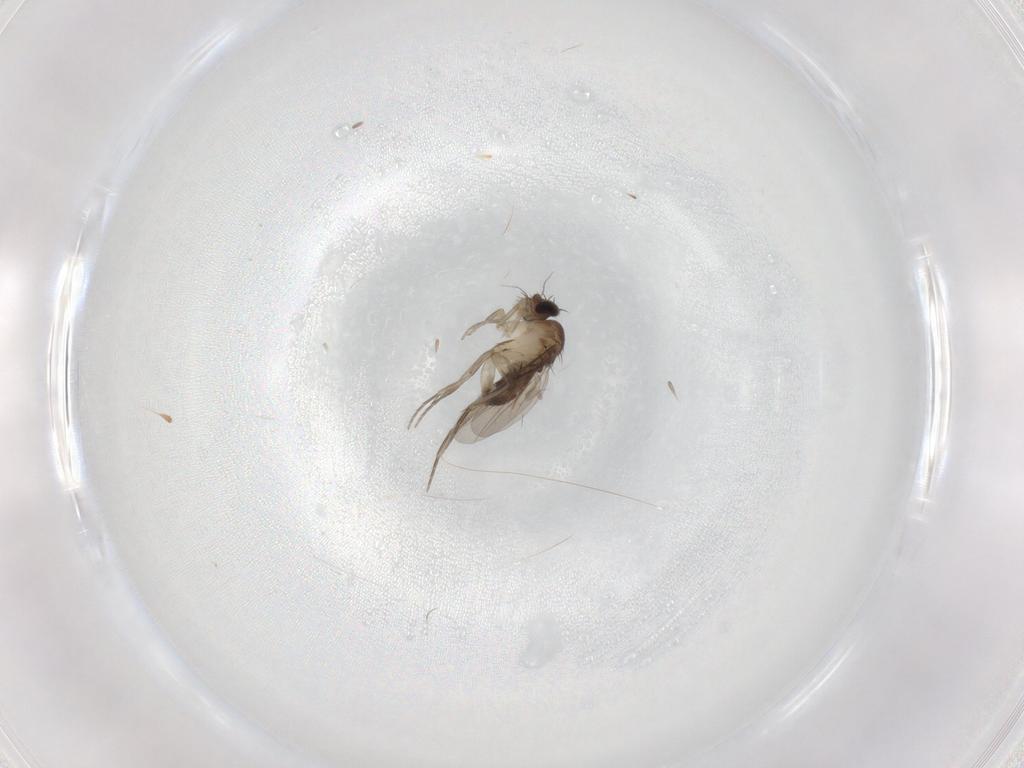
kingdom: Animalia
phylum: Arthropoda
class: Insecta
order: Diptera
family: Phoridae
